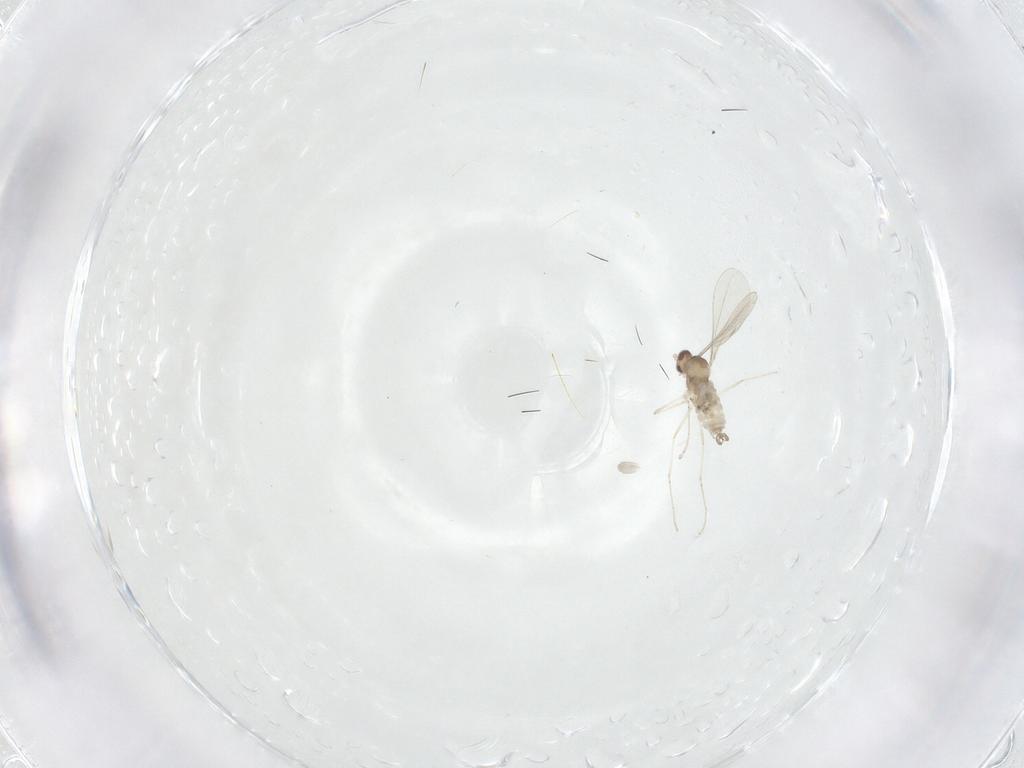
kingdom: Animalia
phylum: Arthropoda
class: Insecta
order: Diptera
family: Cecidomyiidae
